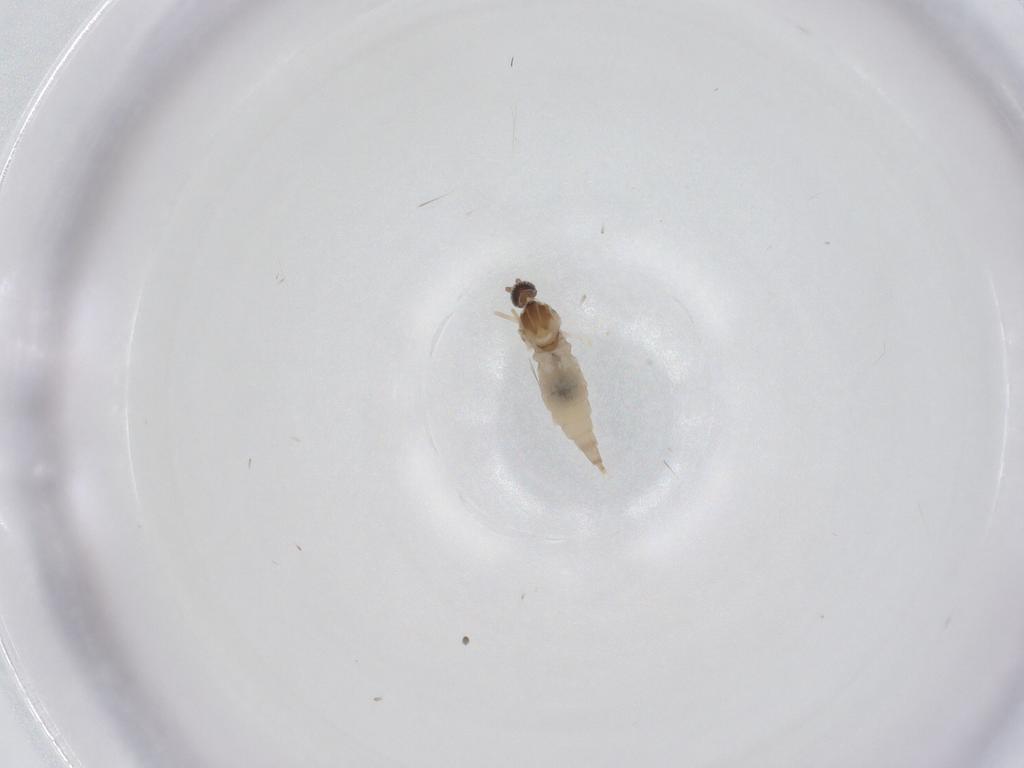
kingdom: Animalia
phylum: Arthropoda
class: Insecta
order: Diptera
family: Cecidomyiidae
